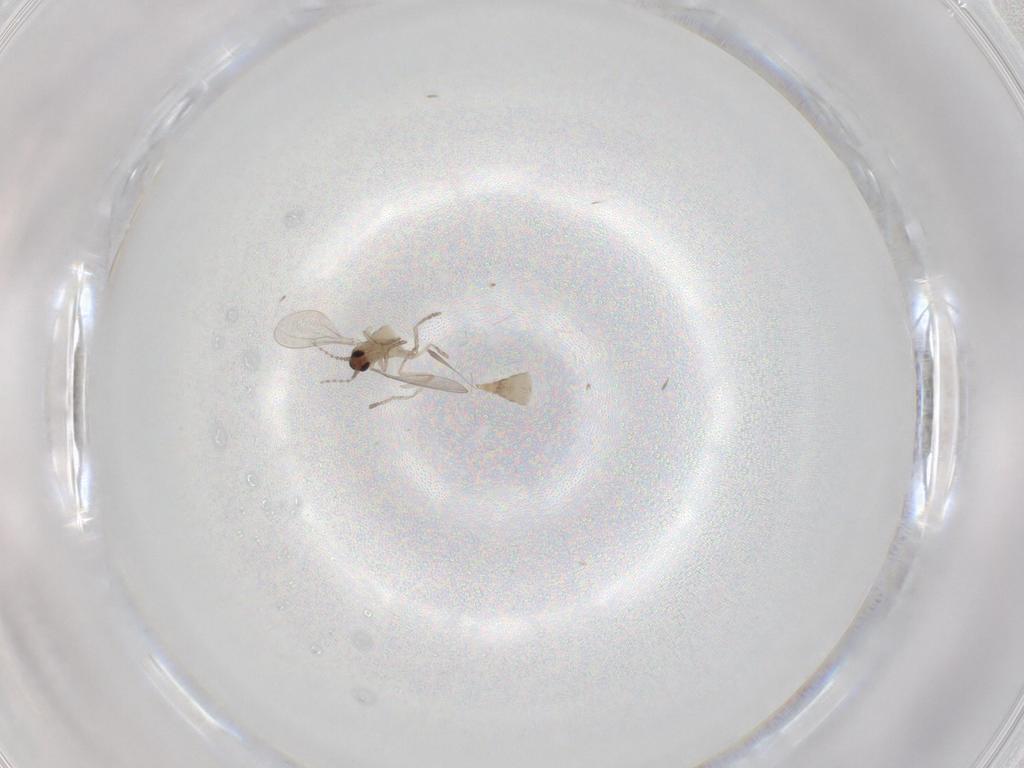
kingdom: Animalia
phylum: Arthropoda
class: Insecta
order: Diptera
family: Cecidomyiidae
